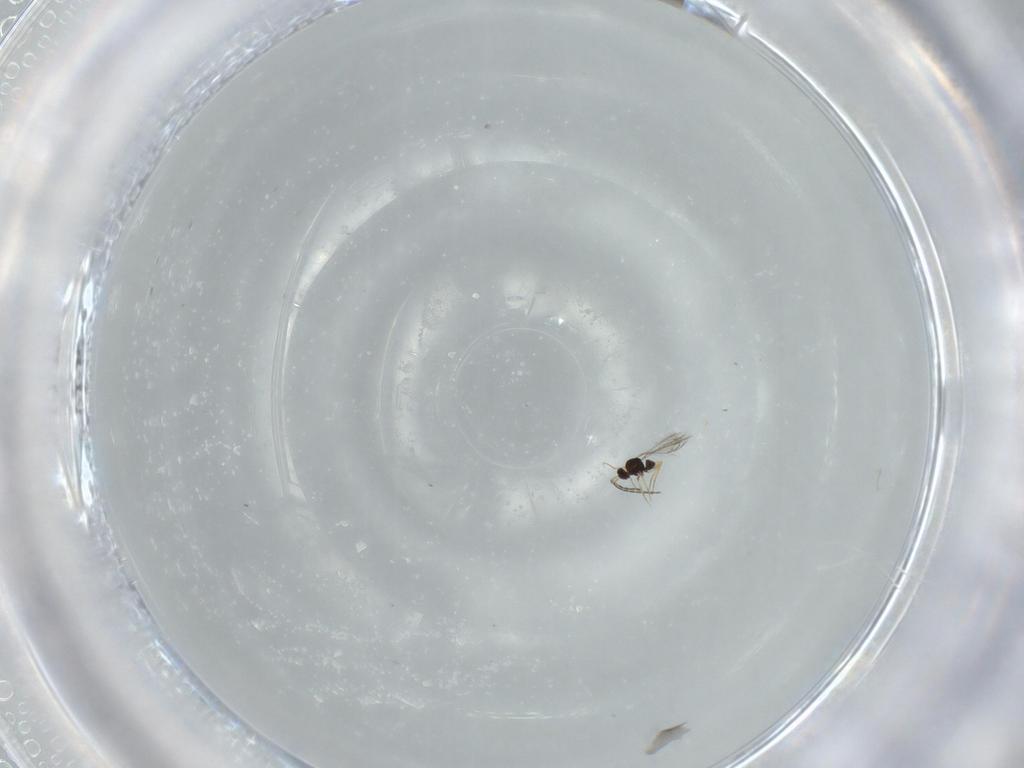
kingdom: Animalia
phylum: Arthropoda
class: Insecta
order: Hymenoptera
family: Mymaridae
